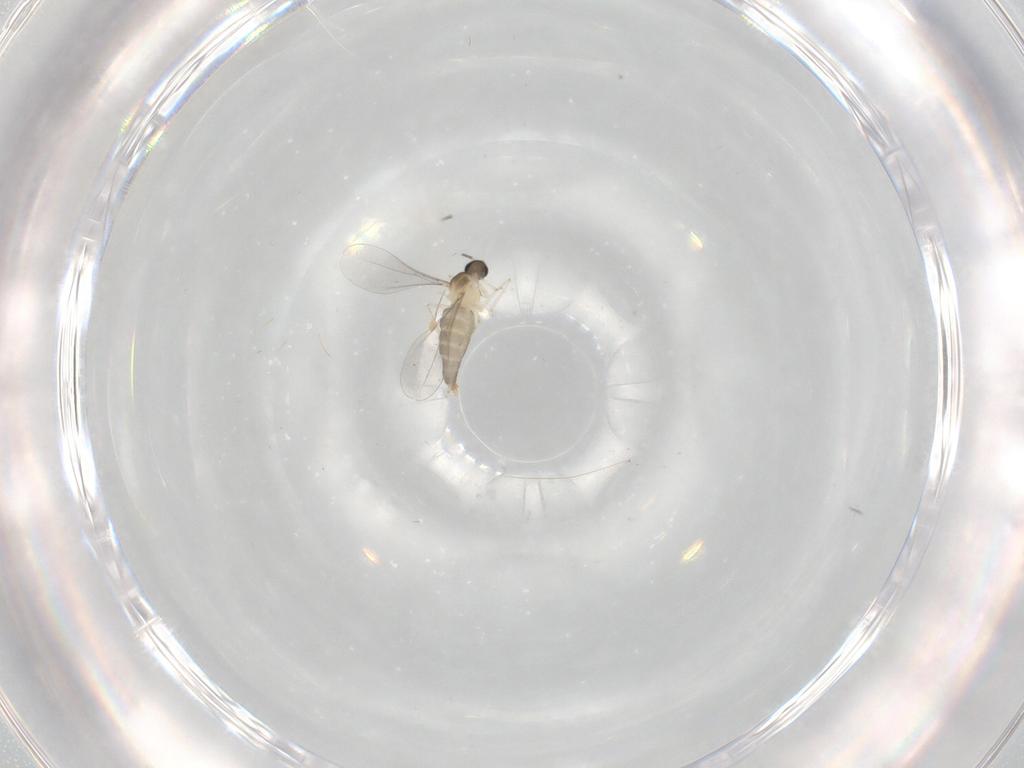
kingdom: Animalia
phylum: Arthropoda
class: Insecta
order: Diptera
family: Cecidomyiidae
